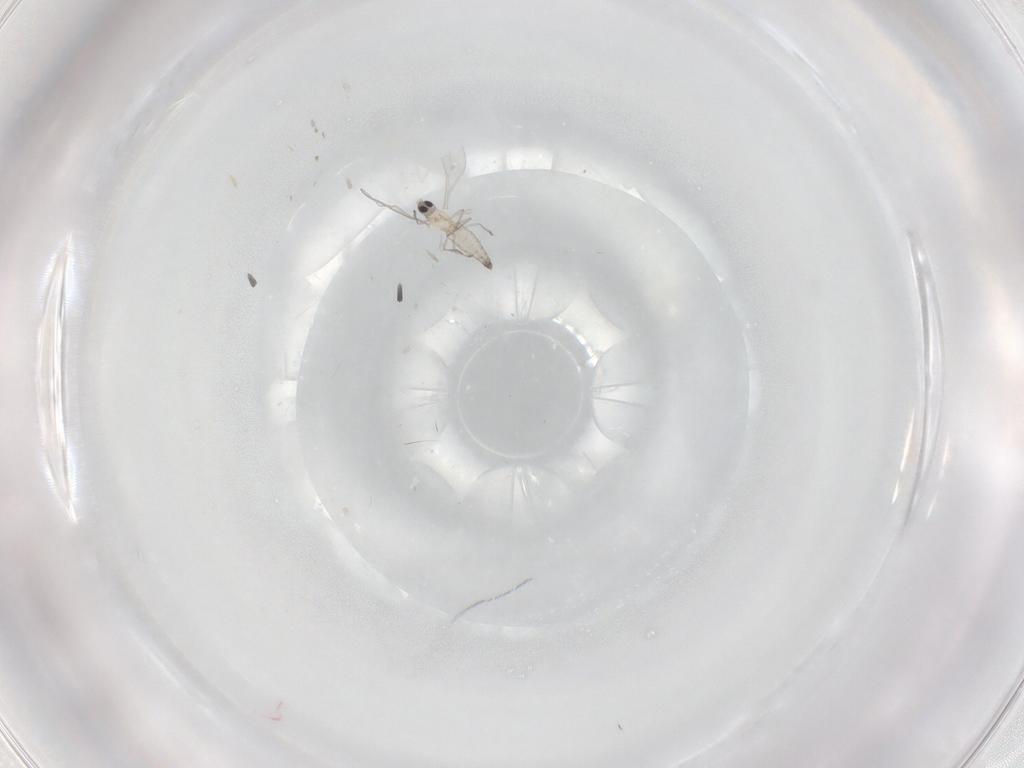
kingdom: Animalia
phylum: Arthropoda
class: Insecta
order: Diptera
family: Cecidomyiidae
